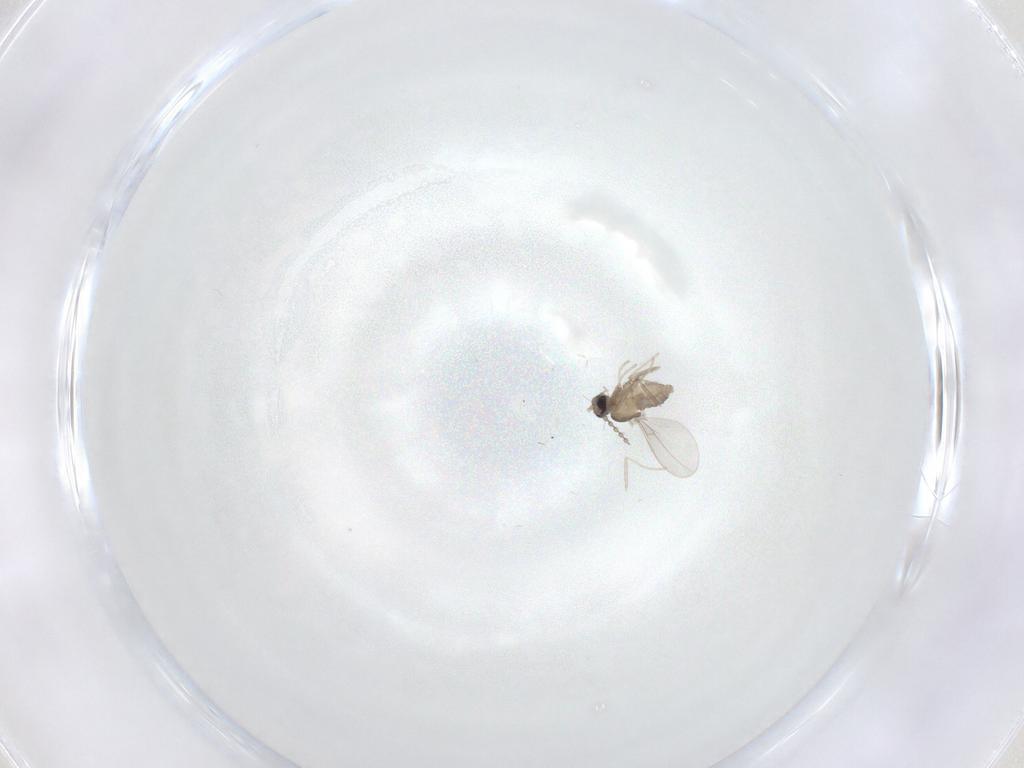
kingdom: Animalia
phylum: Arthropoda
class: Insecta
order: Diptera
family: Cecidomyiidae
